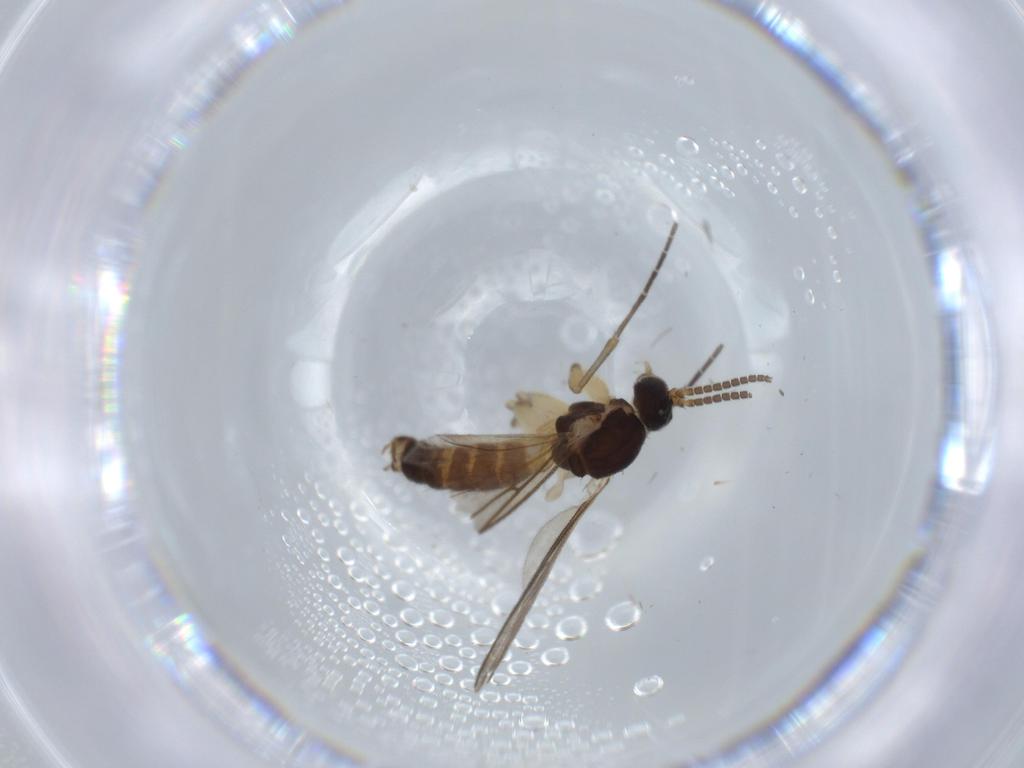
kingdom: Animalia
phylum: Arthropoda
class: Insecta
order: Diptera
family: Mycetophilidae
